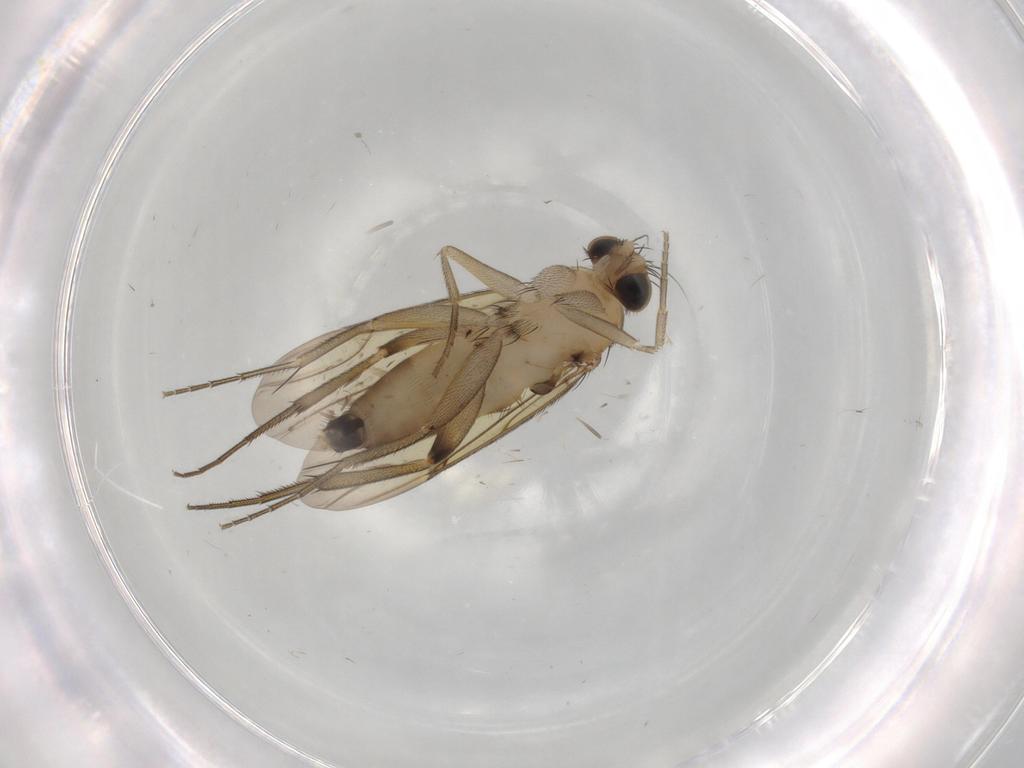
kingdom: Animalia
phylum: Arthropoda
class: Insecta
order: Diptera
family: Phoridae
